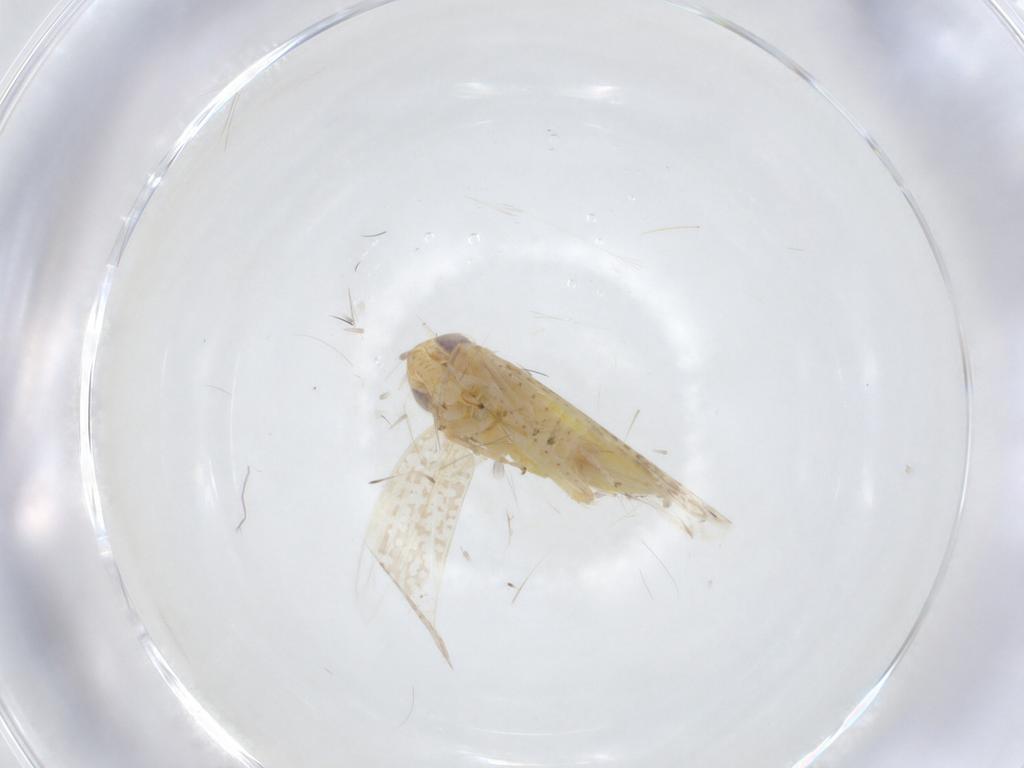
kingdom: Animalia
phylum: Arthropoda
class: Insecta
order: Hemiptera
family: Cicadellidae
